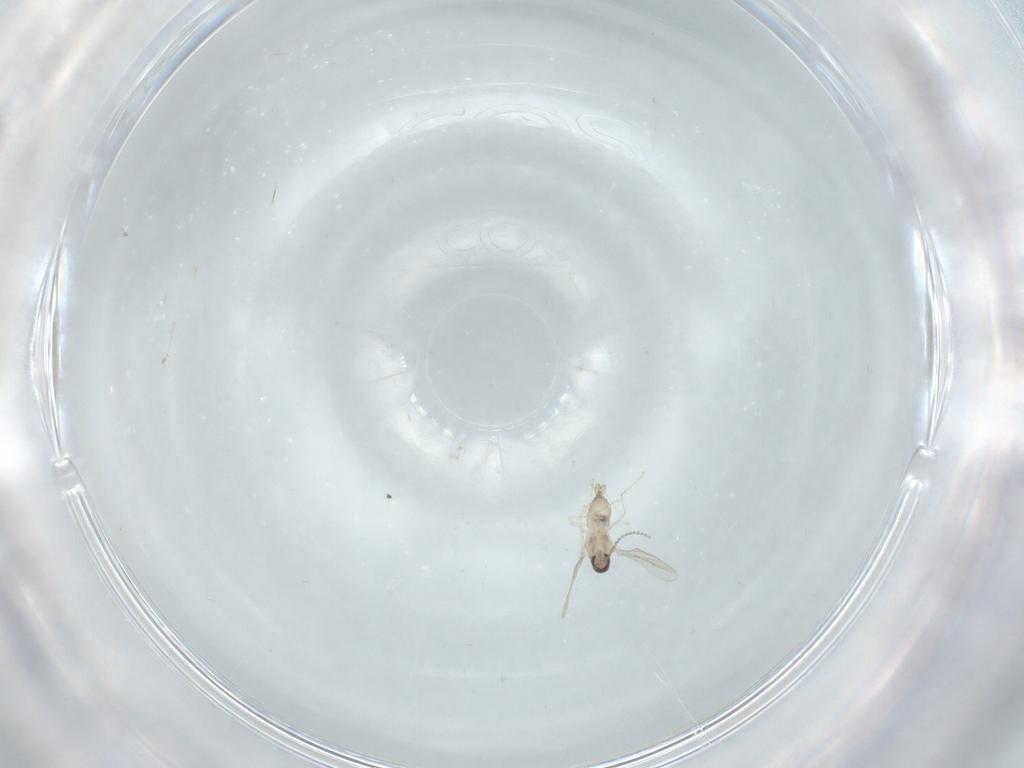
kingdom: Animalia
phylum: Arthropoda
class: Insecta
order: Diptera
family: Cecidomyiidae
